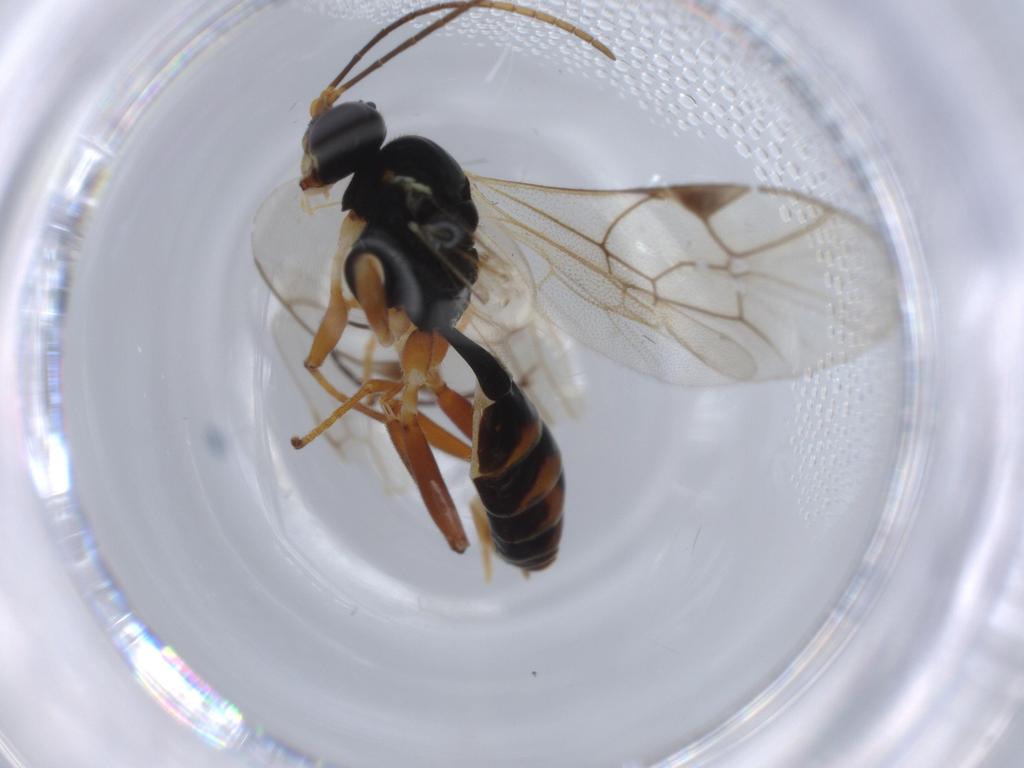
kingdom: Animalia
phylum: Arthropoda
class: Insecta
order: Hymenoptera
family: Ichneumonidae
